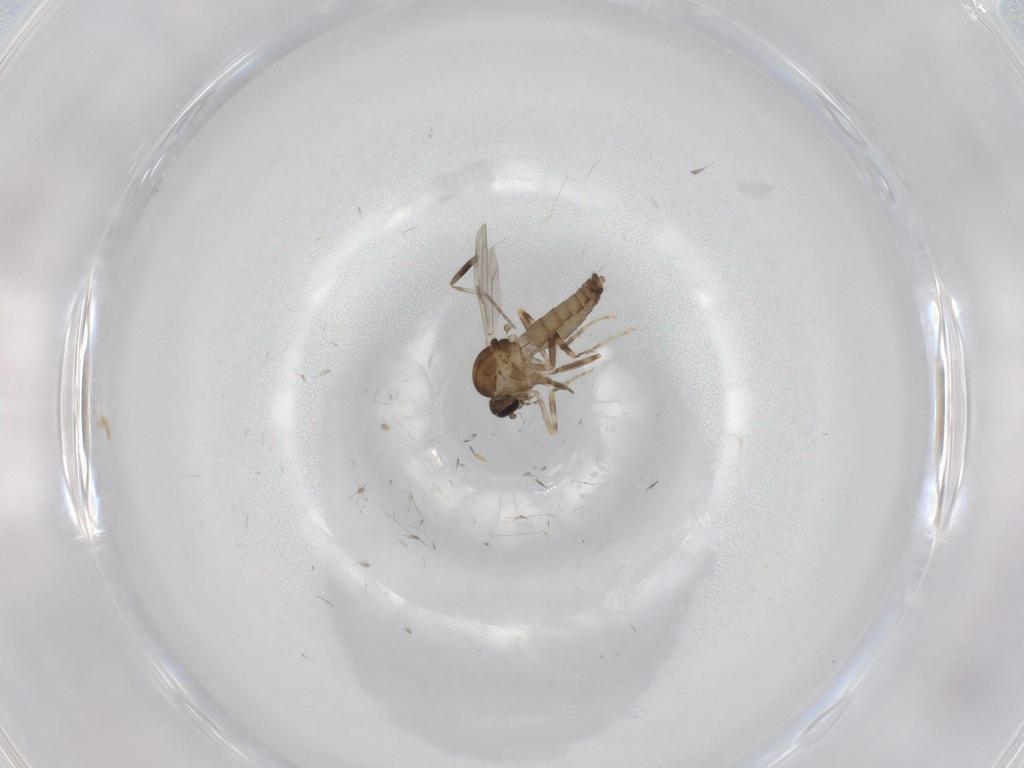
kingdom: Animalia
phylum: Arthropoda
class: Insecta
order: Diptera
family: Ceratopogonidae
